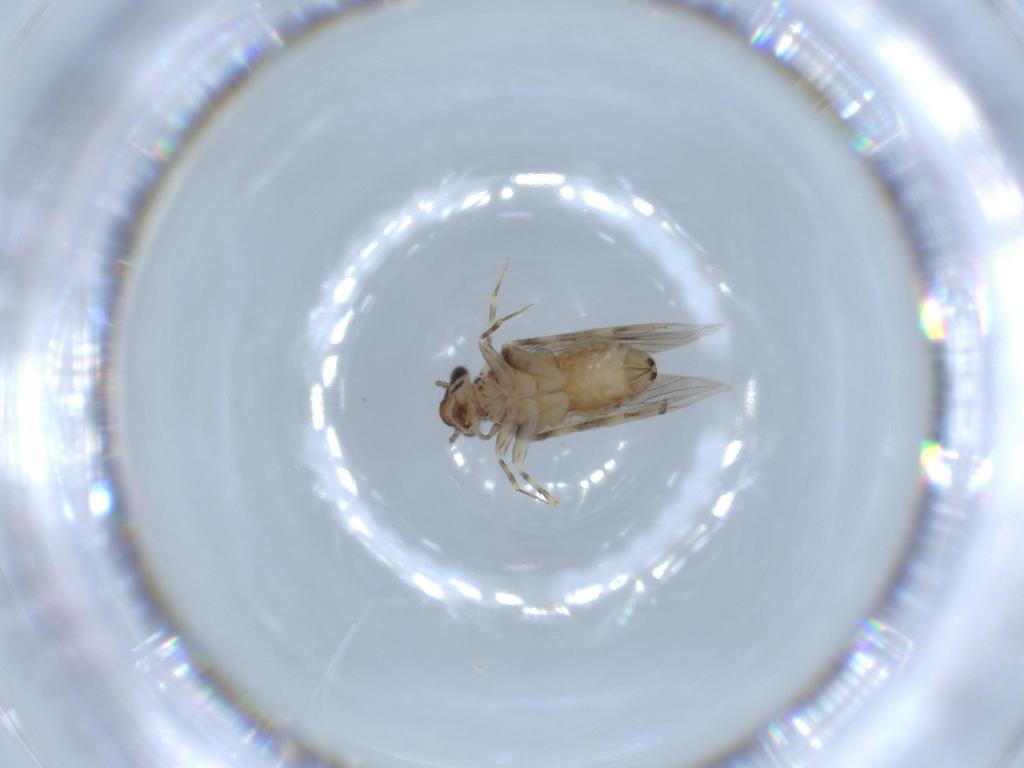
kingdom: Animalia
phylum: Arthropoda
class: Insecta
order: Psocodea
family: Lepidopsocidae
